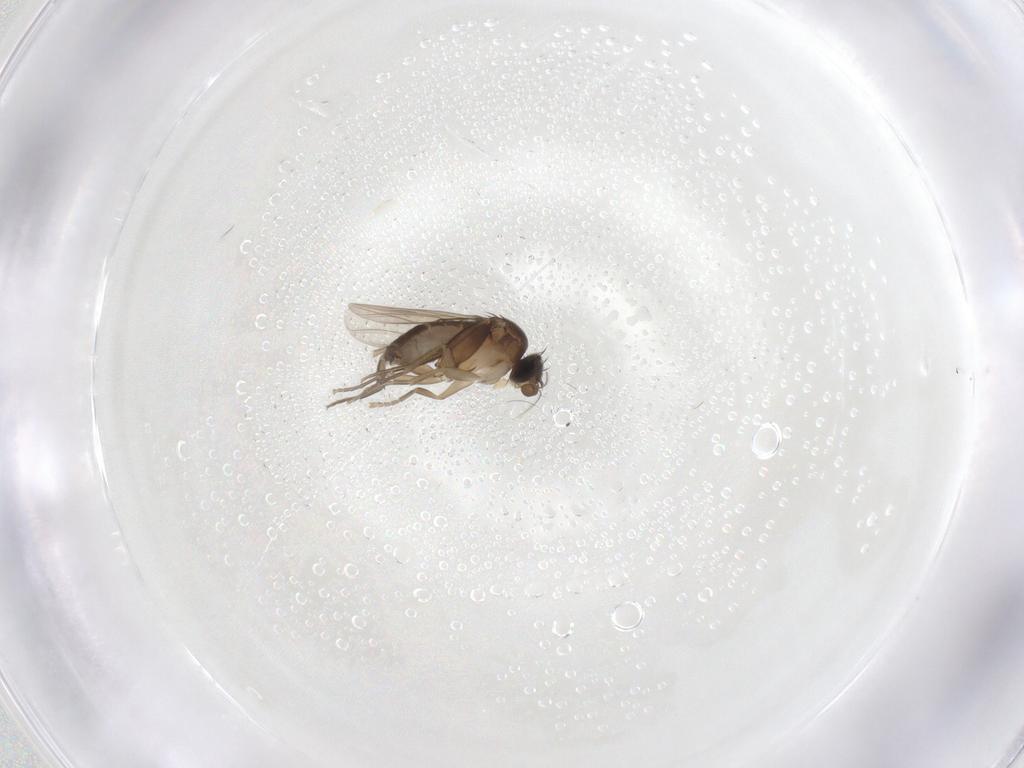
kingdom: Animalia
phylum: Arthropoda
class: Insecta
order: Diptera
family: Phoridae
